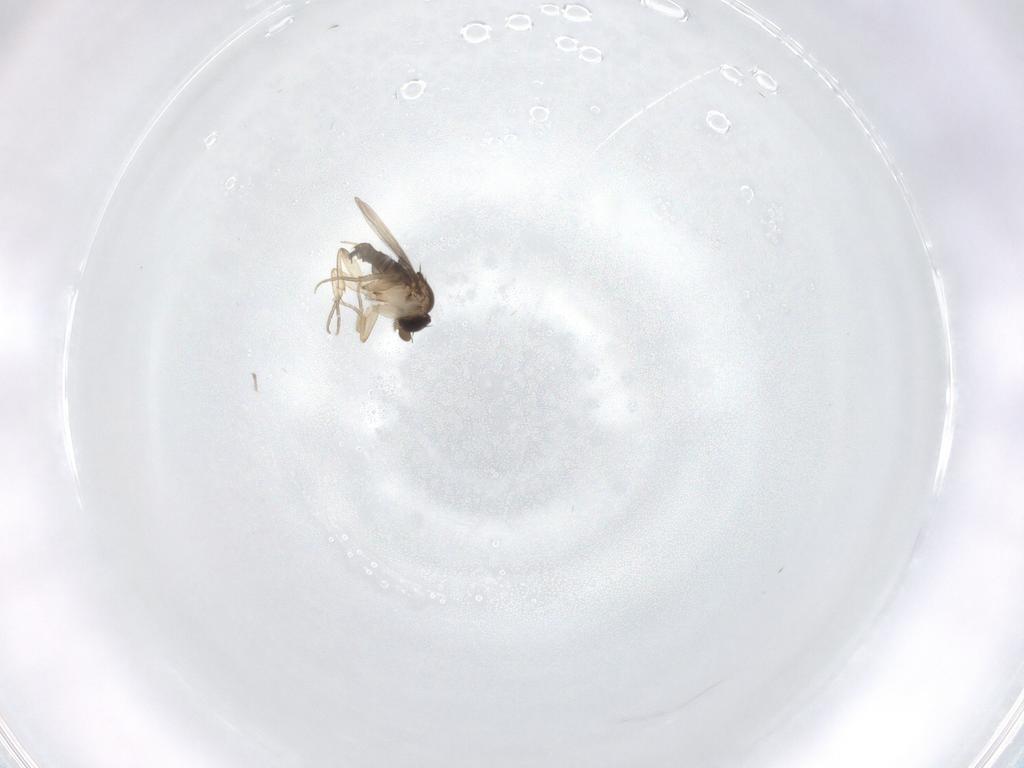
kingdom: Animalia
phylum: Arthropoda
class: Insecta
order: Diptera
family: Phoridae
